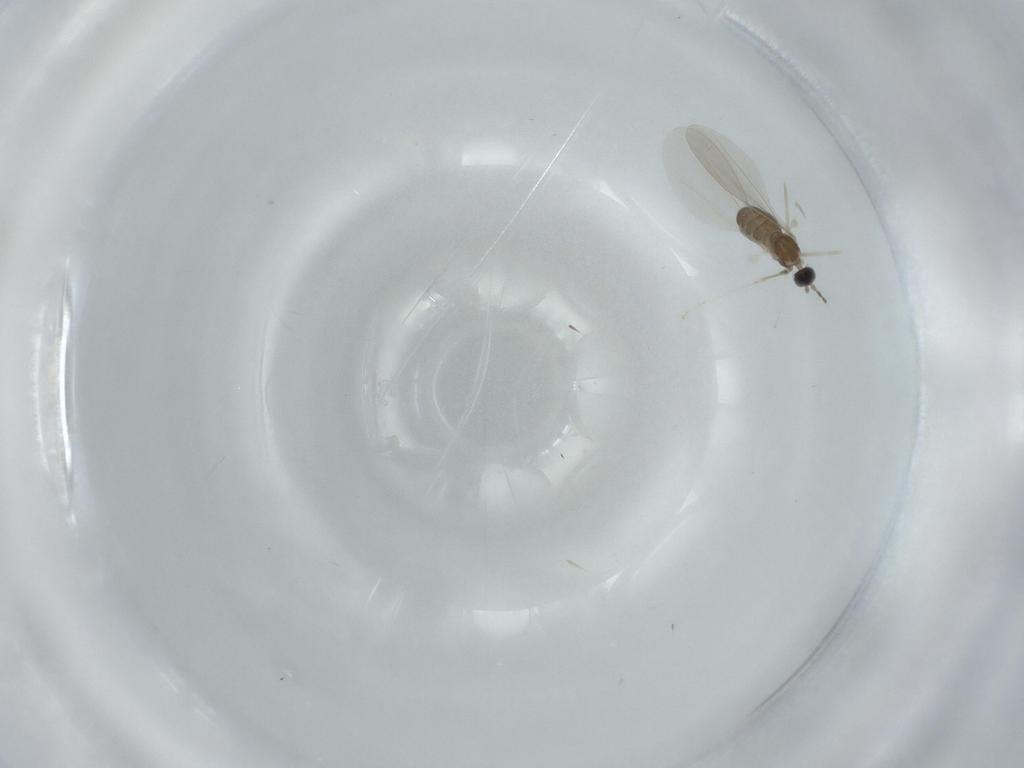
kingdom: Animalia
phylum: Arthropoda
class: Insecta
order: Diptera
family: Cecidomyiidae
